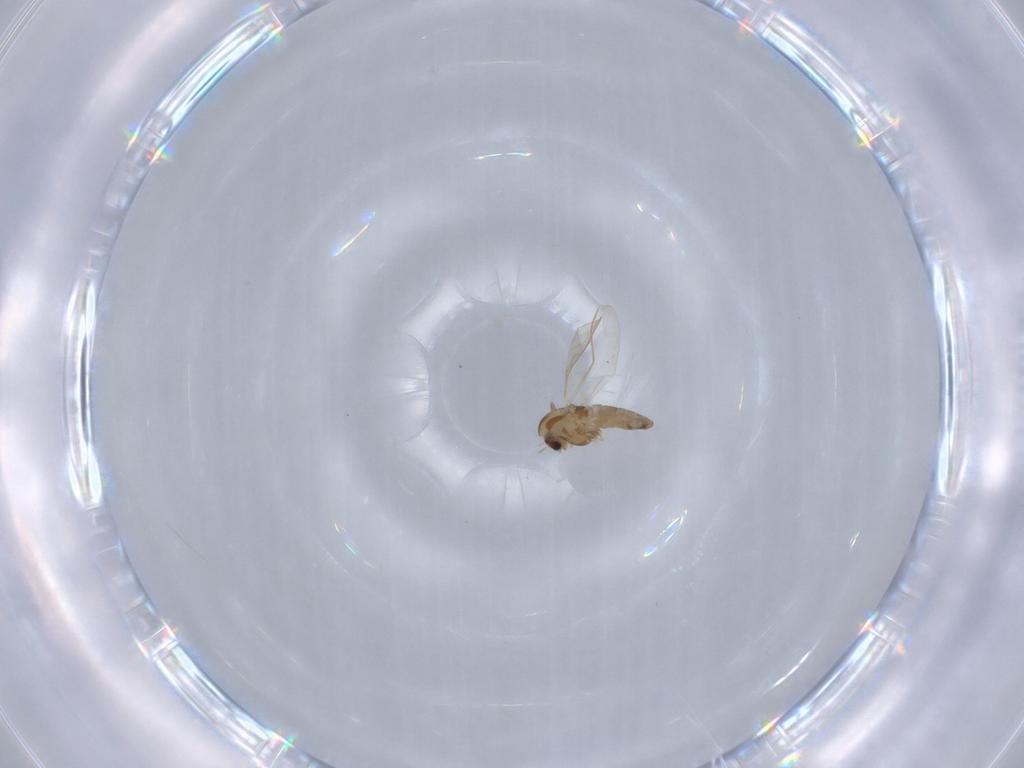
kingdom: Animalia
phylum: Arthropoda
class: Insecta
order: Diptera
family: Chironomidae
